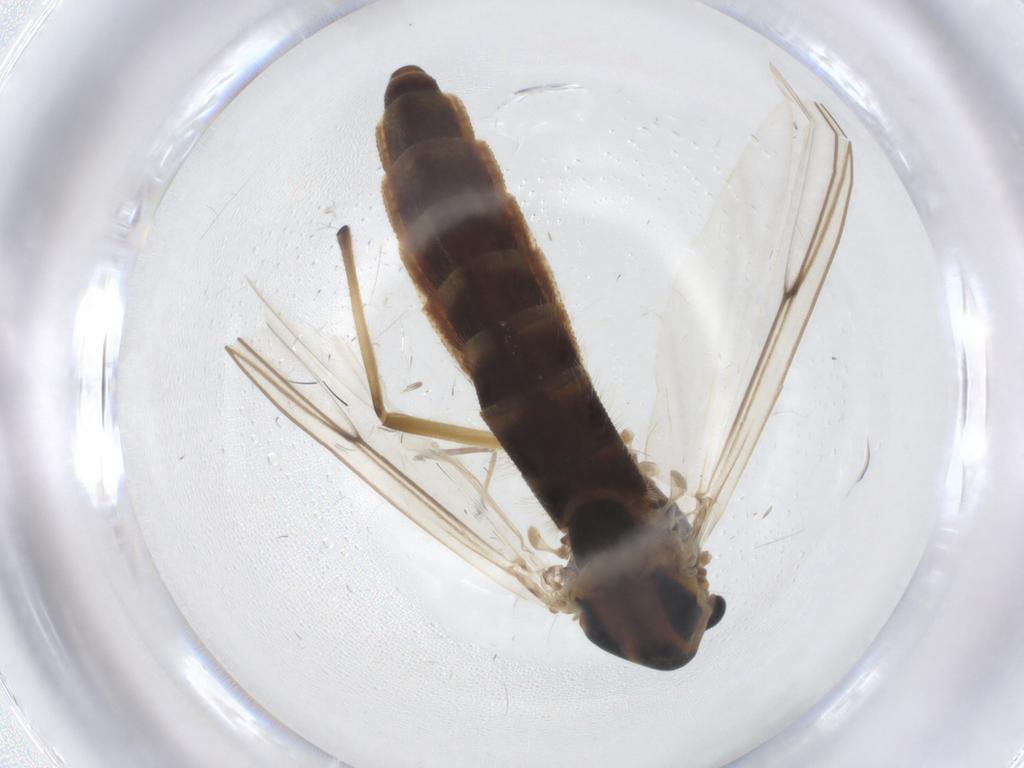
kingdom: Animalia
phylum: Arthropoda
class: Insecta
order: Diptera
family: Chironomidae
